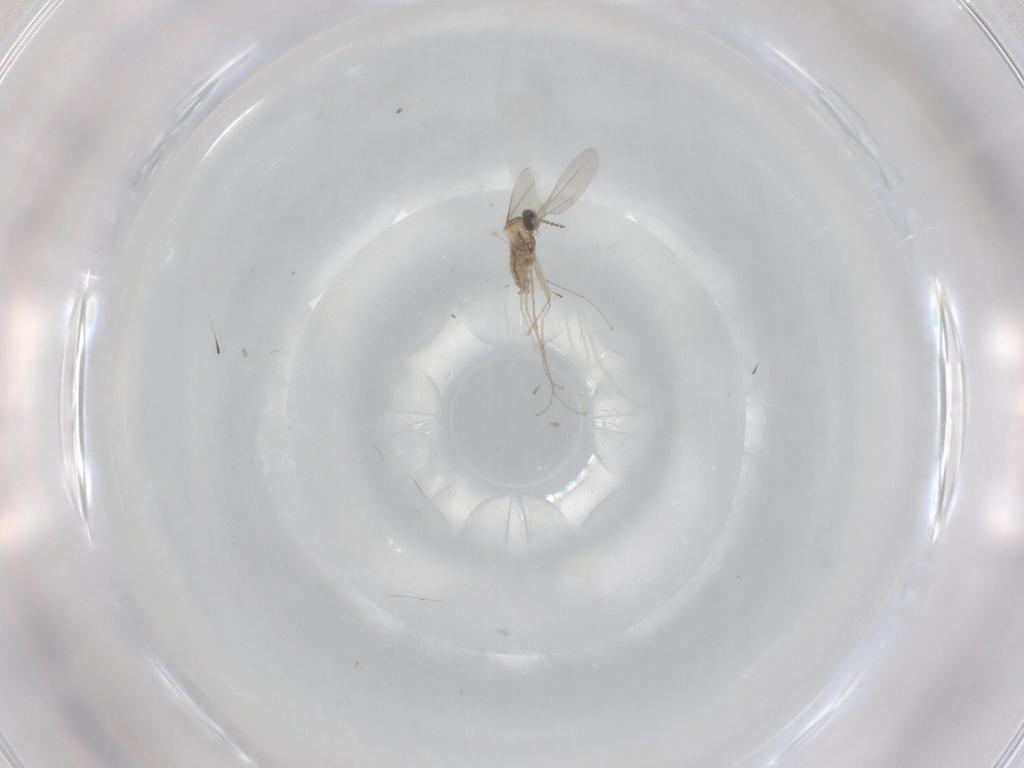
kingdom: Animalia
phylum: Arthropoda
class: Insecta
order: Diptera
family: Cecidomyiidae
